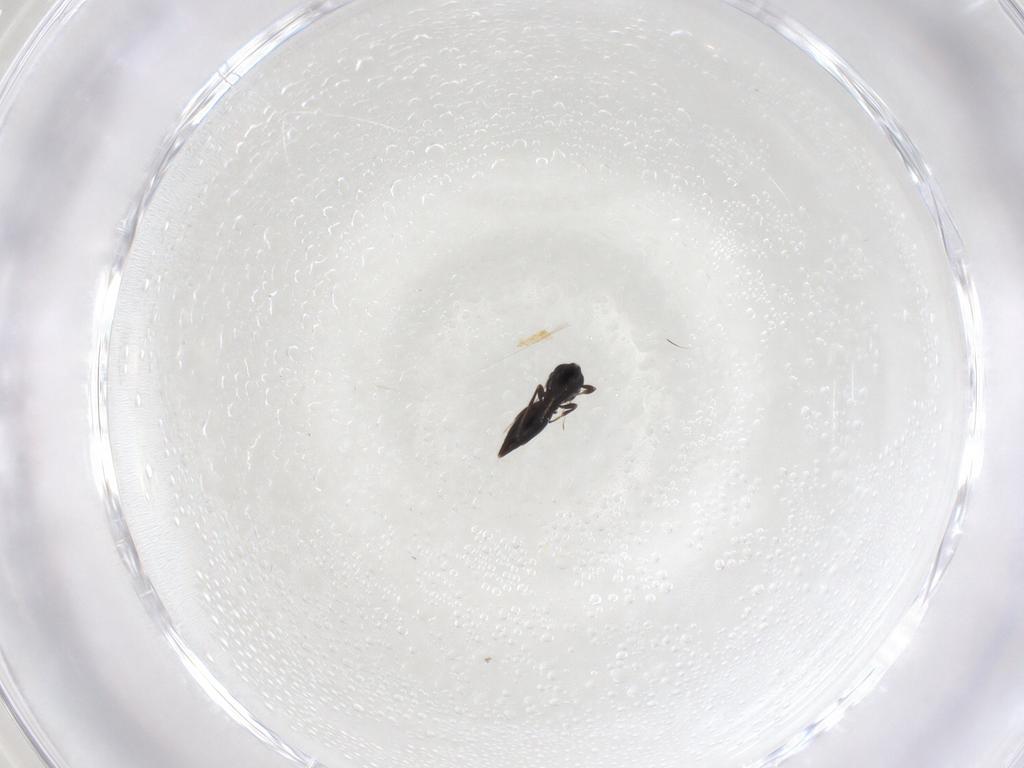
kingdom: Animalia
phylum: Arthropoda
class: Insecta
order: Hymenoptera
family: Scelionidae
